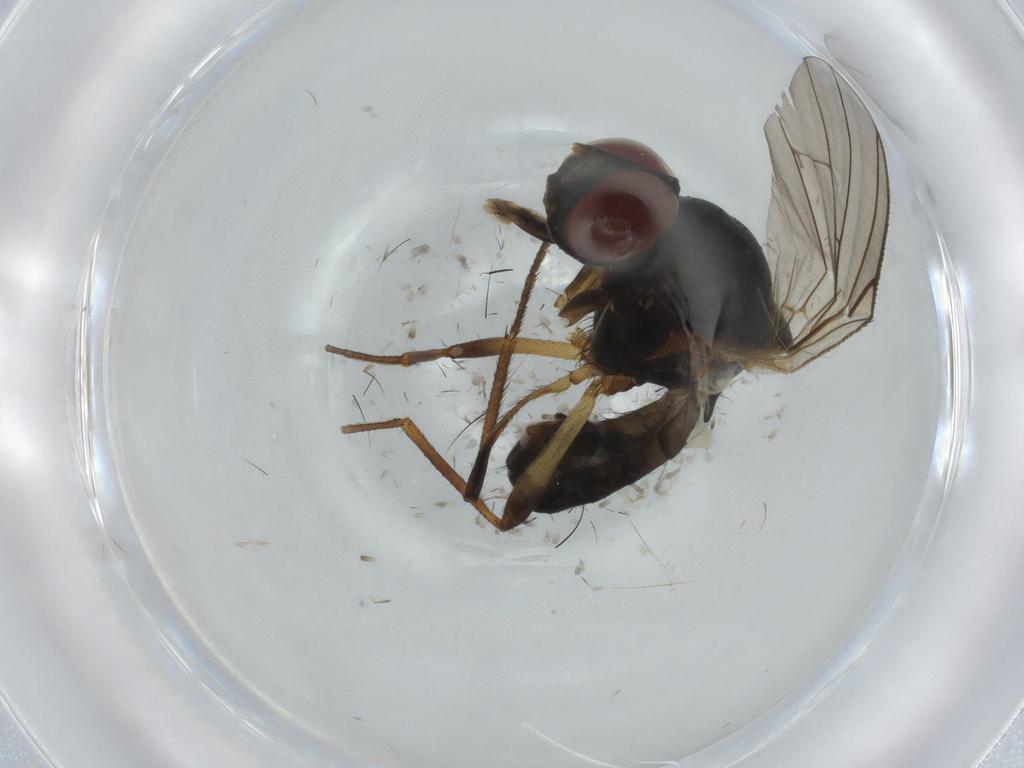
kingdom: Animalia
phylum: Arthropoda
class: Insecta
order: Diptera
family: Anthomyiidae
